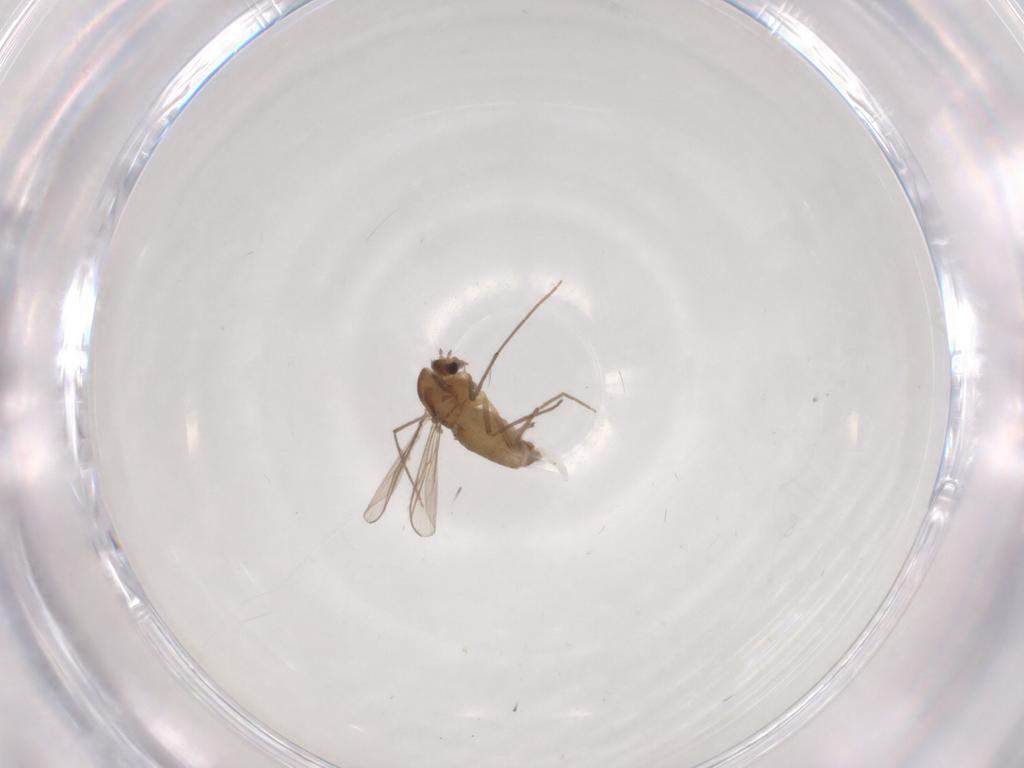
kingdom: Animalia
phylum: Arthropoda
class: Insecta
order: Diptera
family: Chironomidae
